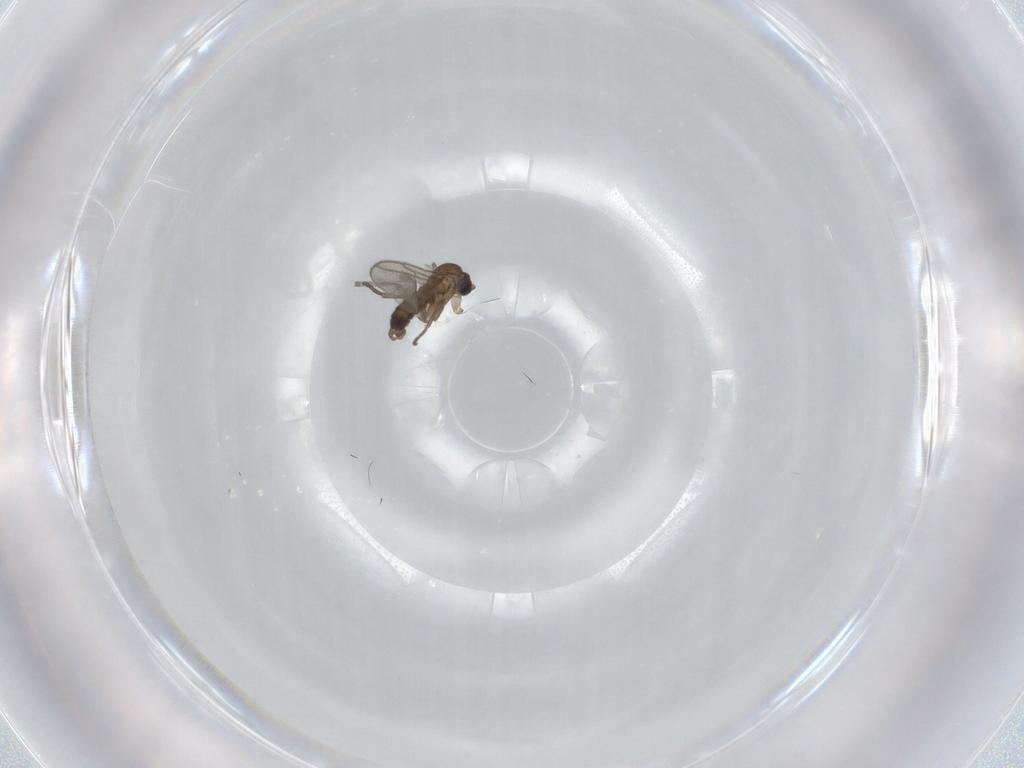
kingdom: Animalia
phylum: Arthropoda
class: Insecta
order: Diptera
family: Sciaridae
